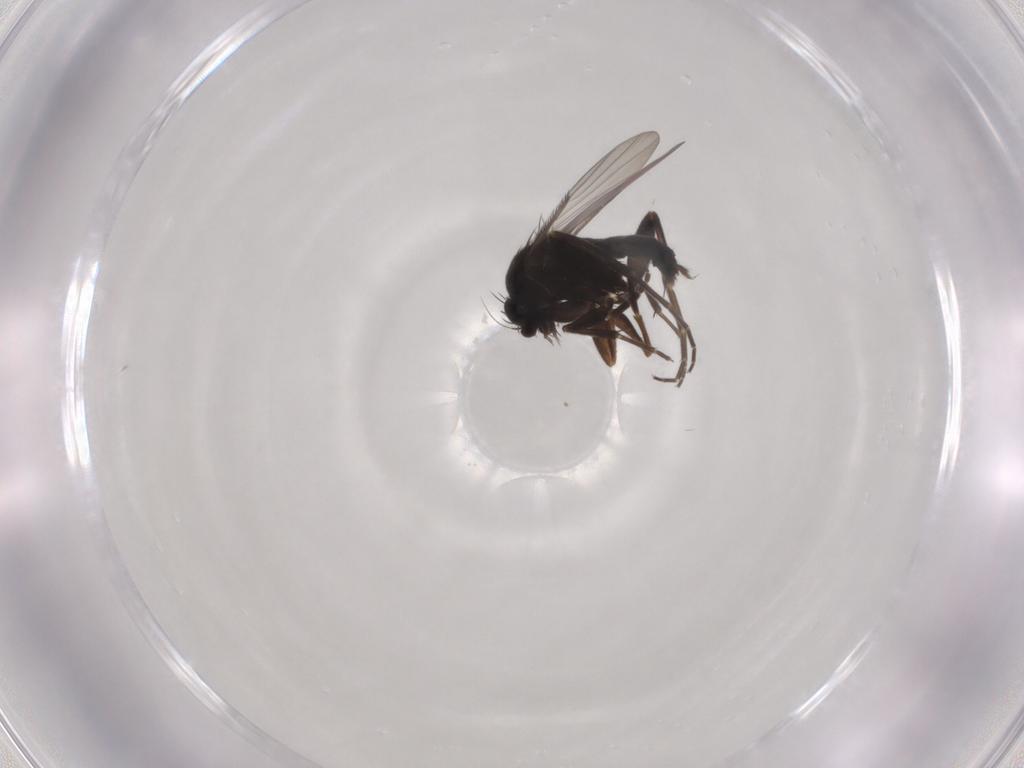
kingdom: Animalia
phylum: Arthropoda
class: Insecta
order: Diptera
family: Phoridae
